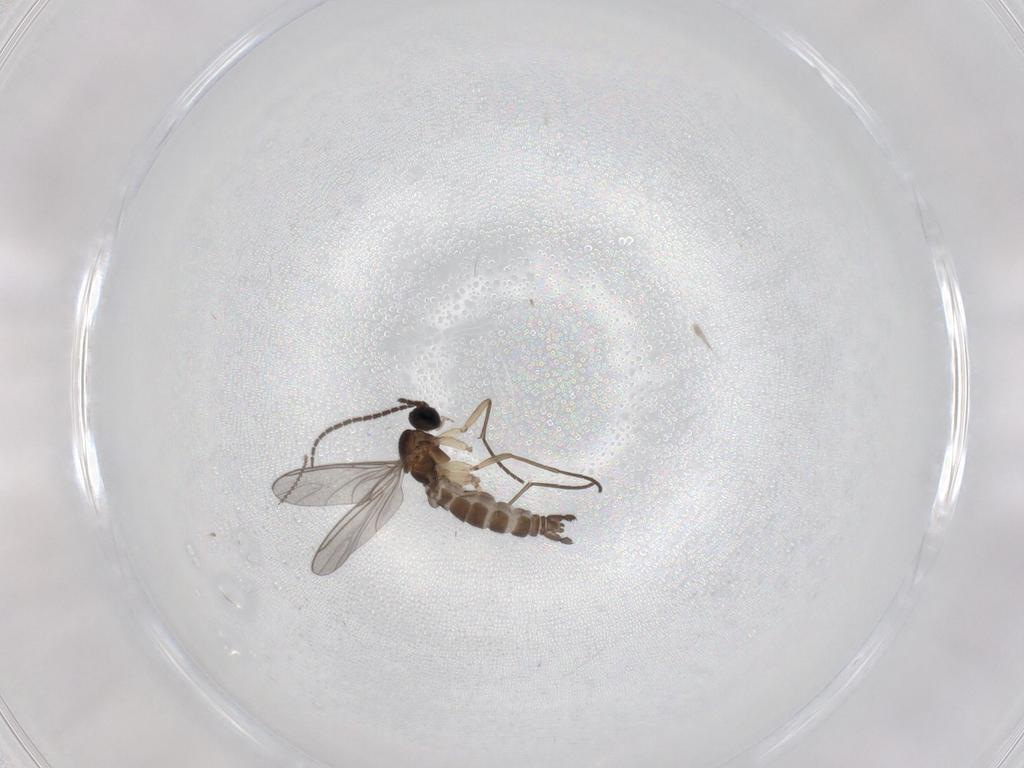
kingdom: Animalia
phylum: Arthropoda
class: Insecta
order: Diptera
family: Sciaridae
